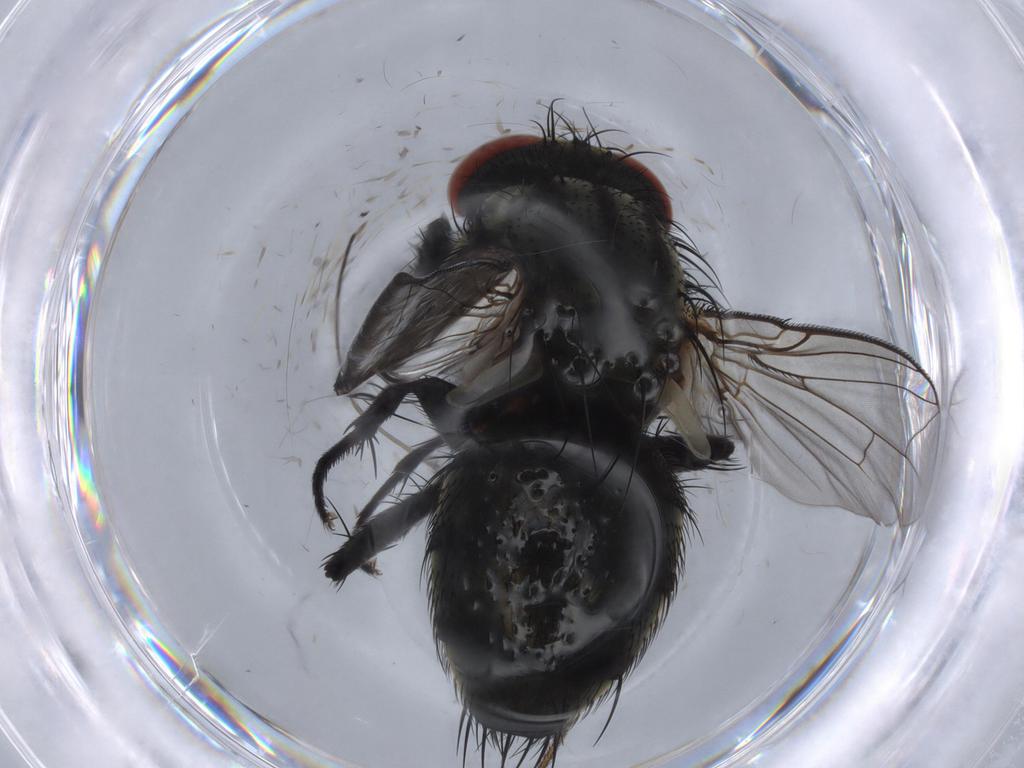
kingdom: Animalia
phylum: Arthropoda
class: Insecta
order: Diptera
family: Sarcophagidae
